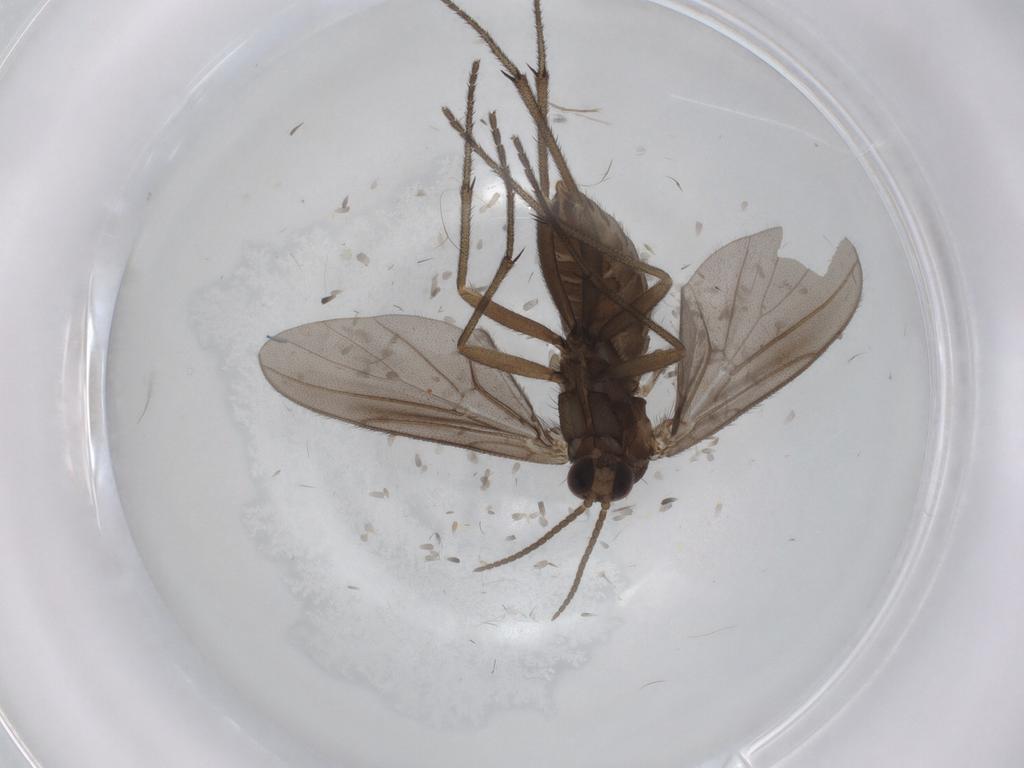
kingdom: Animalia
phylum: Arthropoda
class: Insecta
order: Diptera
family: Diadocidiidae
